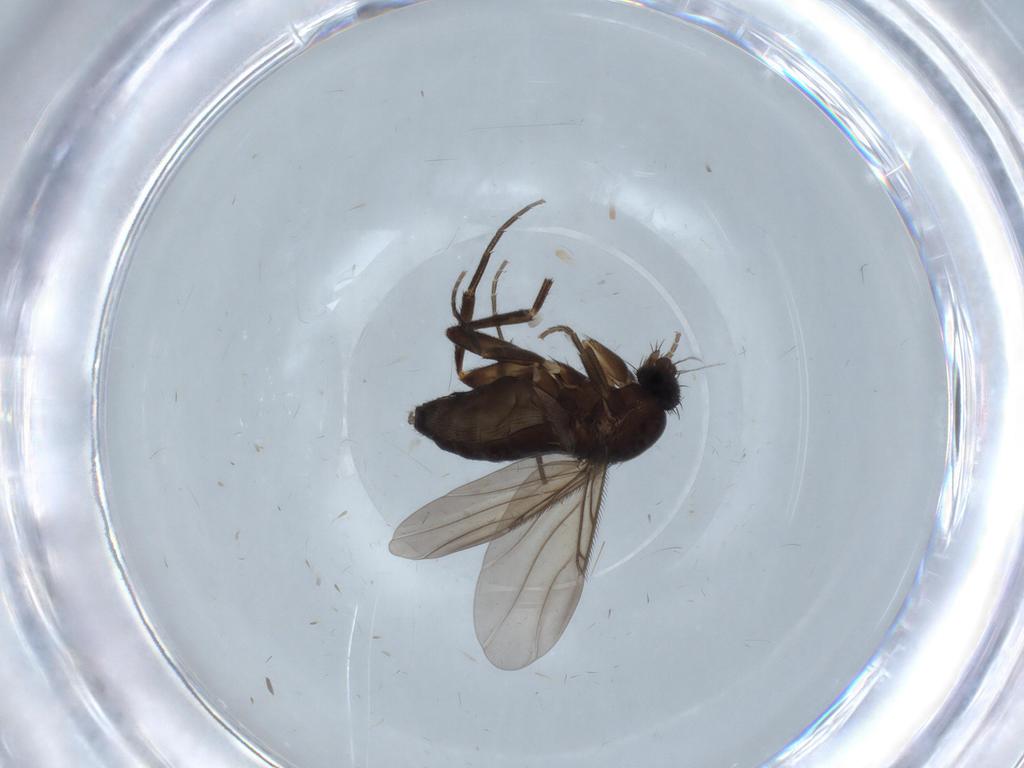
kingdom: Animalia
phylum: Arthropoda
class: Insecta
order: Diptera
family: Phoridae
